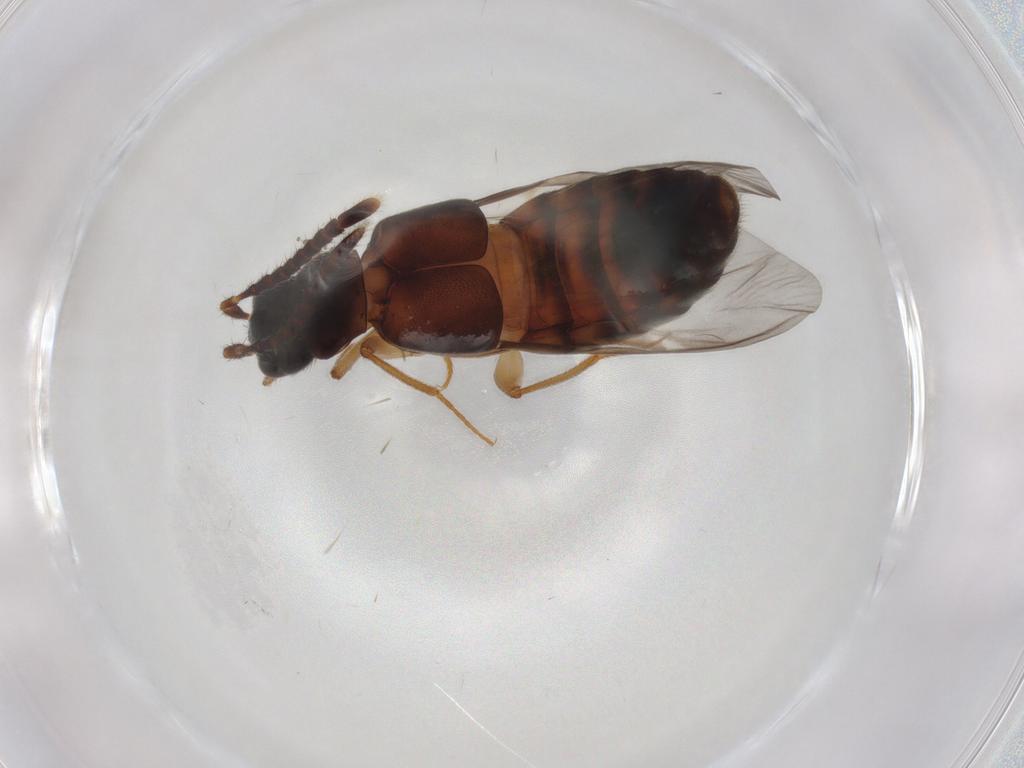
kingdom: Animalia
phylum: Arthropoda
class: Insecta
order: Coleoptera
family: Staphylinidae
